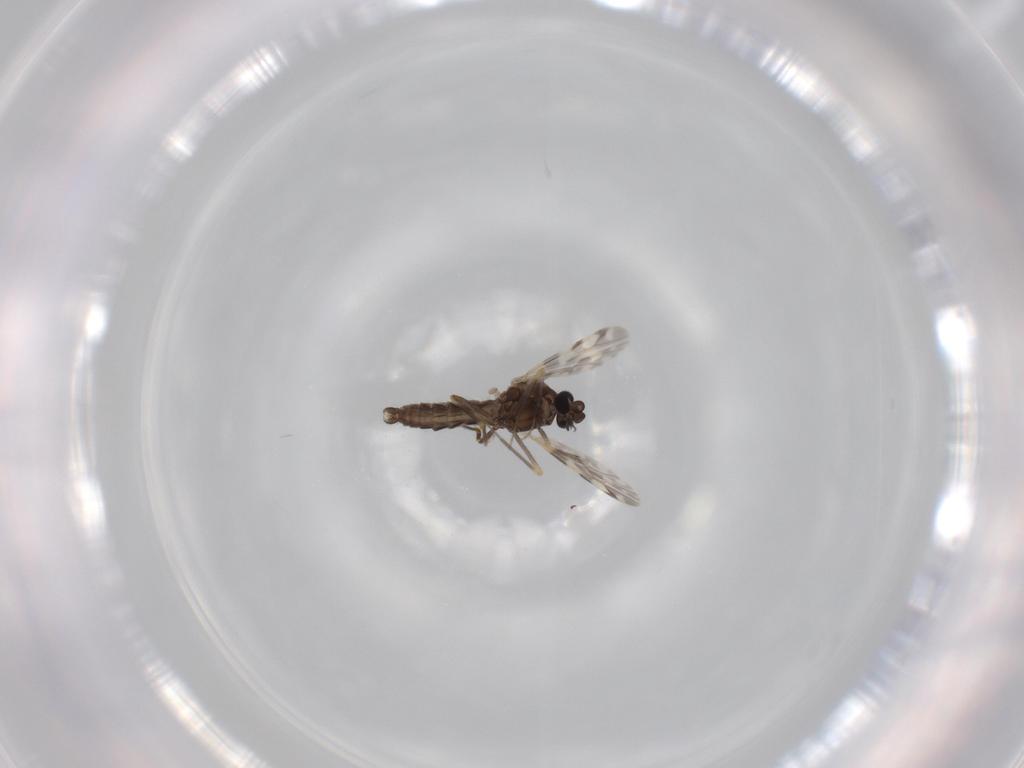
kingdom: Animalia
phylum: Arthropoda
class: Insecta
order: Diptera
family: Ceratopogonidae
